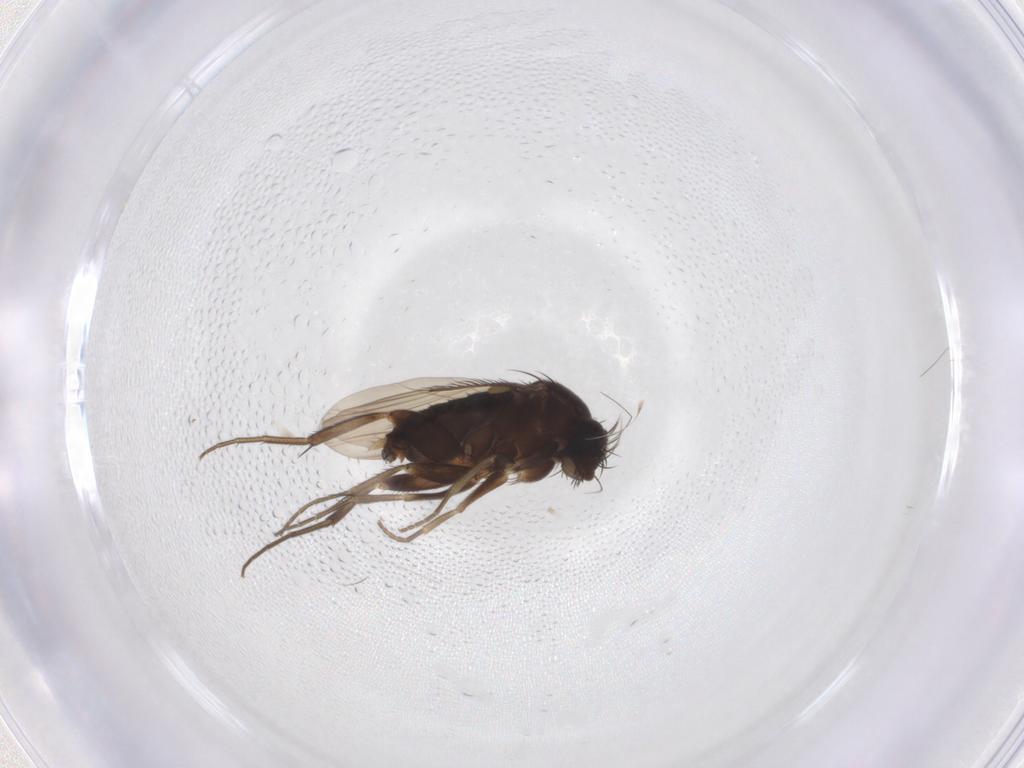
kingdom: Animalia
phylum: Arthropoda
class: Insecta
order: Diptera
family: Phoridae
